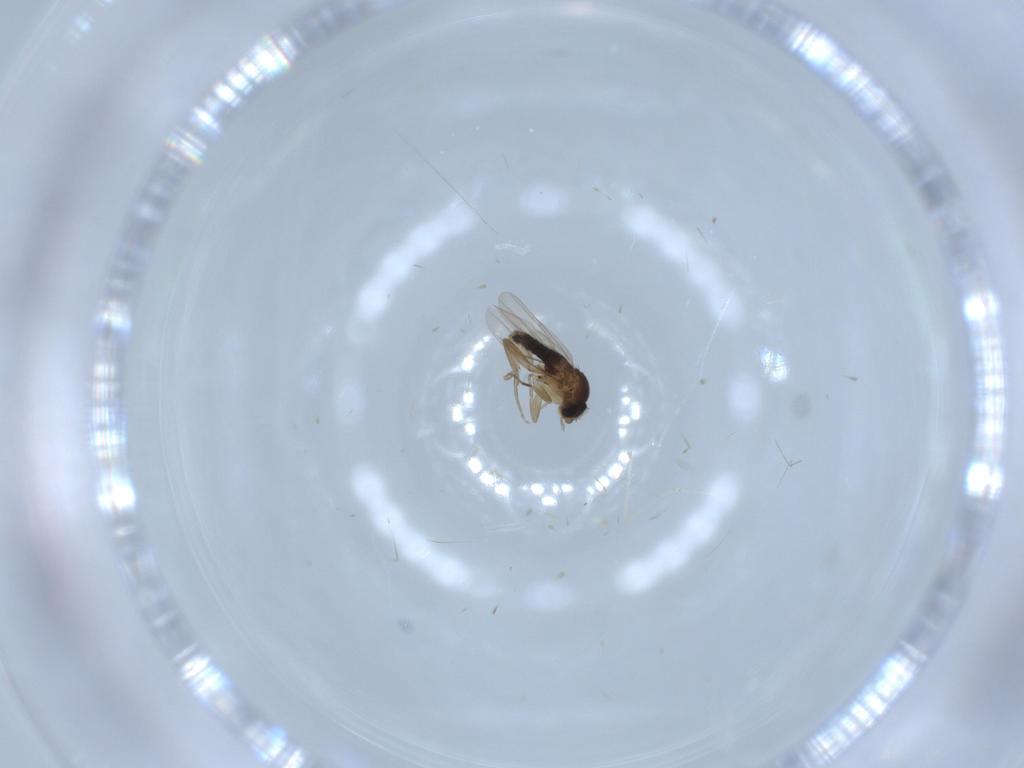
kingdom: Animalia
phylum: Arthropoda
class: Insecta
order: Diptera
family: Phoridae
